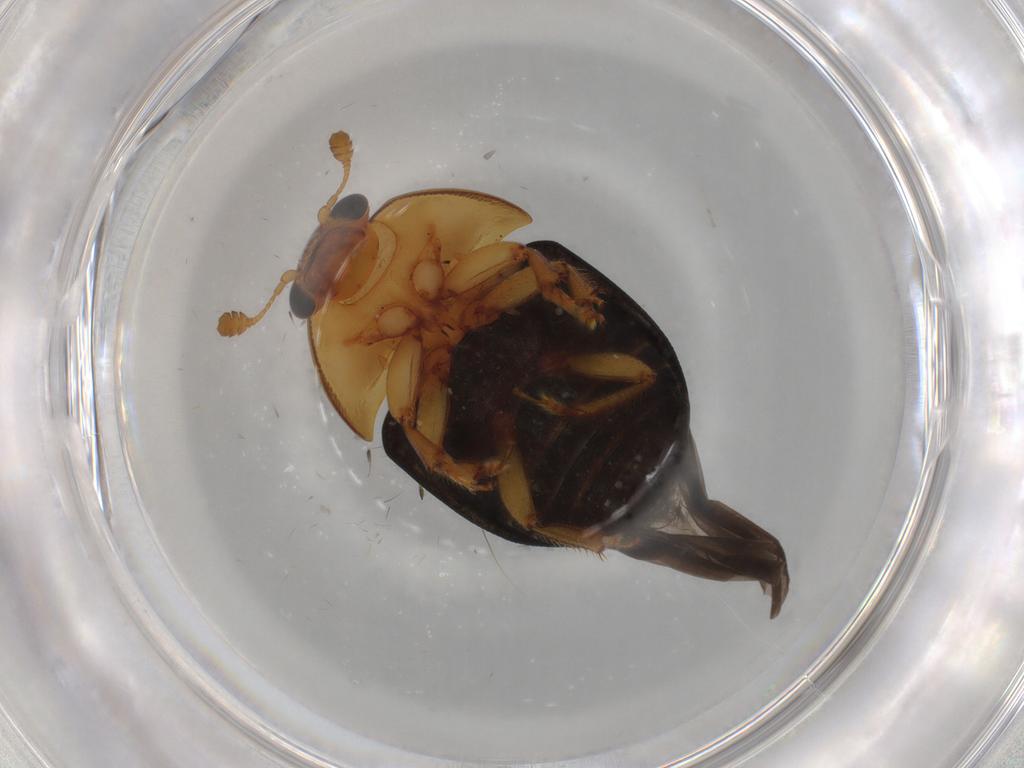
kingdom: Animalia
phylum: Arthropoda
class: Insecta
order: Coleoptera
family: Nitidulidae
